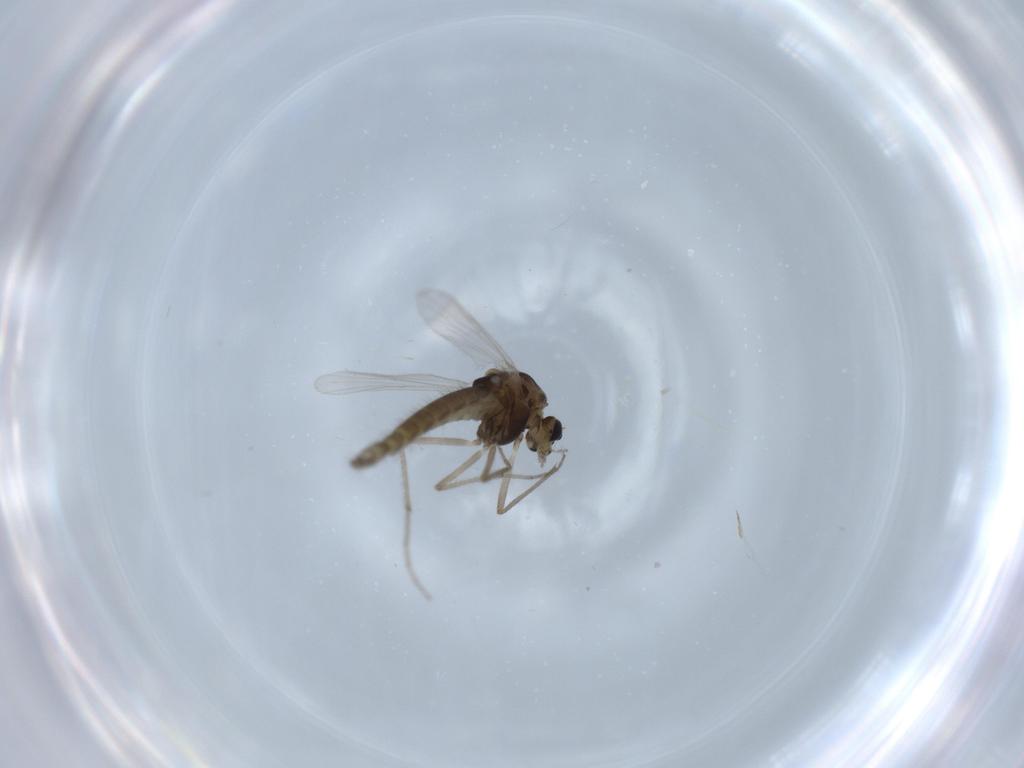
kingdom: Animalia
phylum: Arthropoda
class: Insecta
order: Diptera
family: Chironomidae
